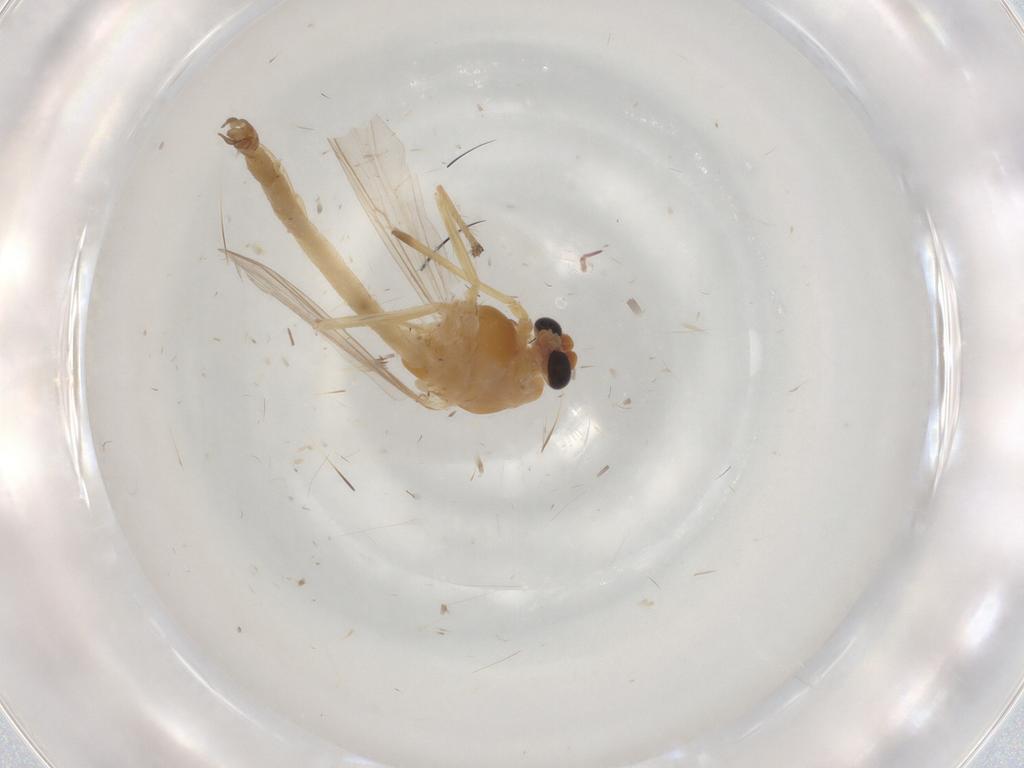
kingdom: Animalia
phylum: Arthropoda
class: Insecta
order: Diptera
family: Chironomidae
